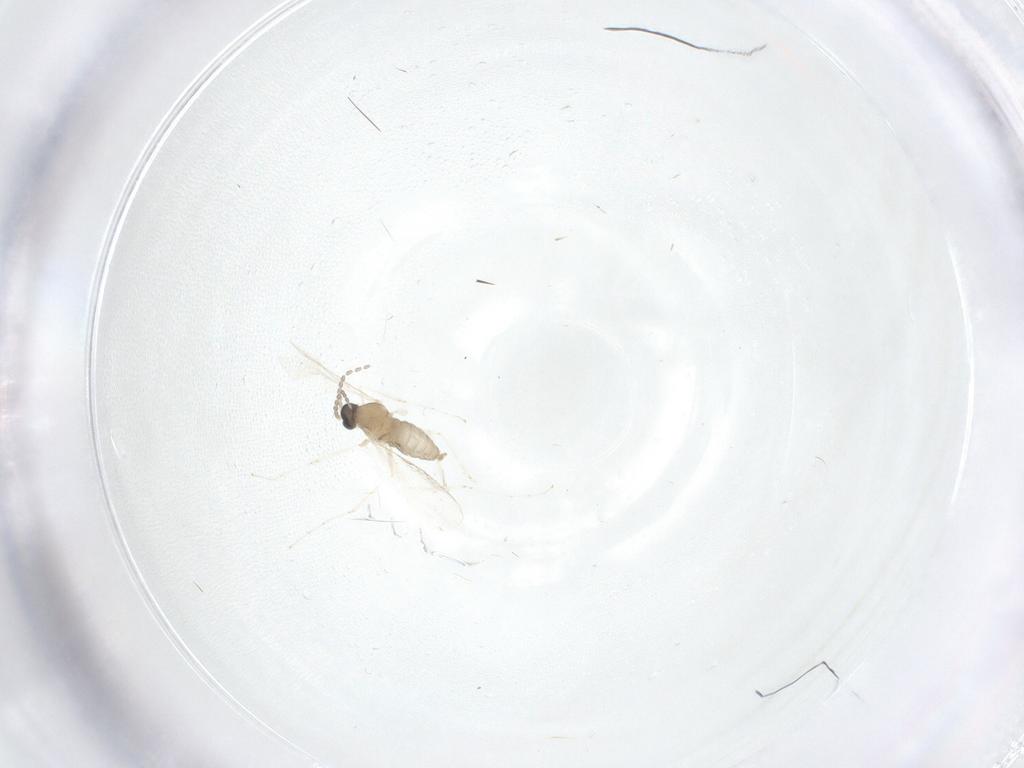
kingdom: Animalia
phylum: Arthropoda
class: Insecta
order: Diptera
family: Cecidomyiidae
